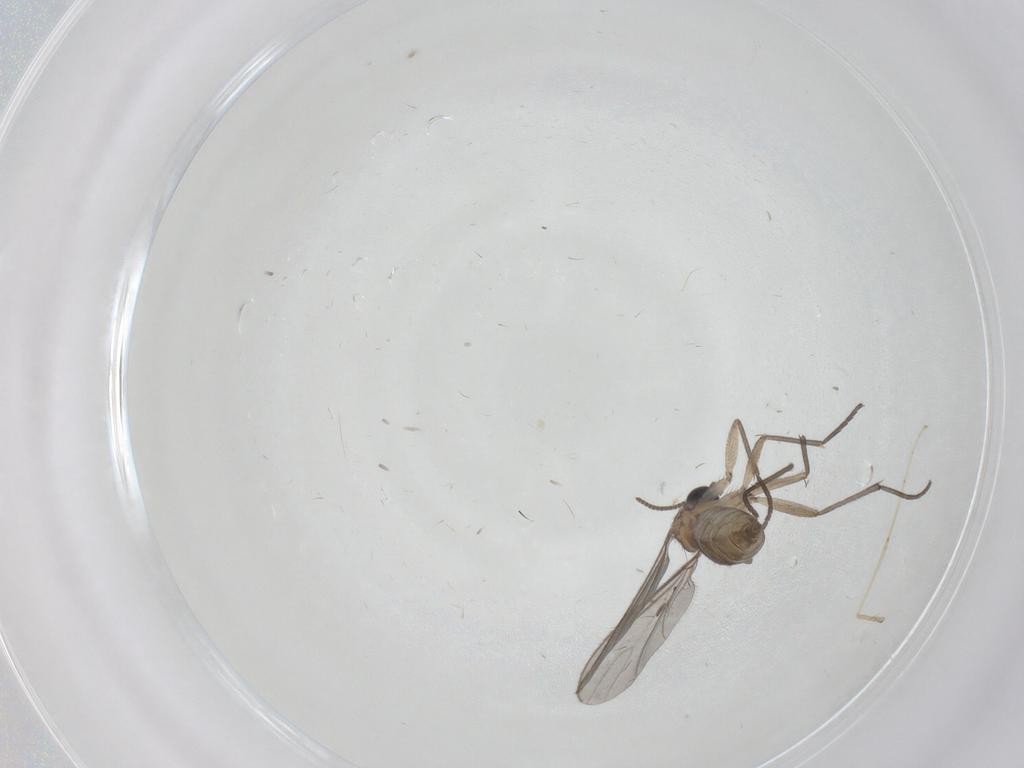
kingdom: Animalia
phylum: Arthropoda
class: Insecta
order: Diptera
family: Sciaridae
